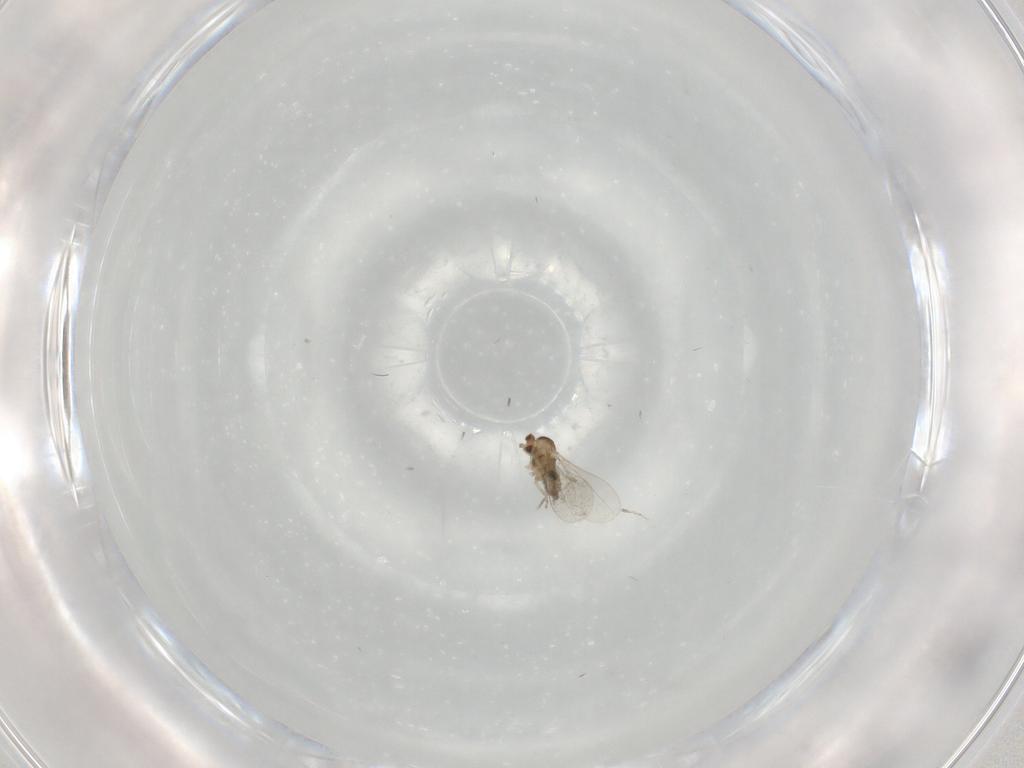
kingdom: Animalia
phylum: Arthropoda
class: Insecta
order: Diptera
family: Cecidomyiidae
